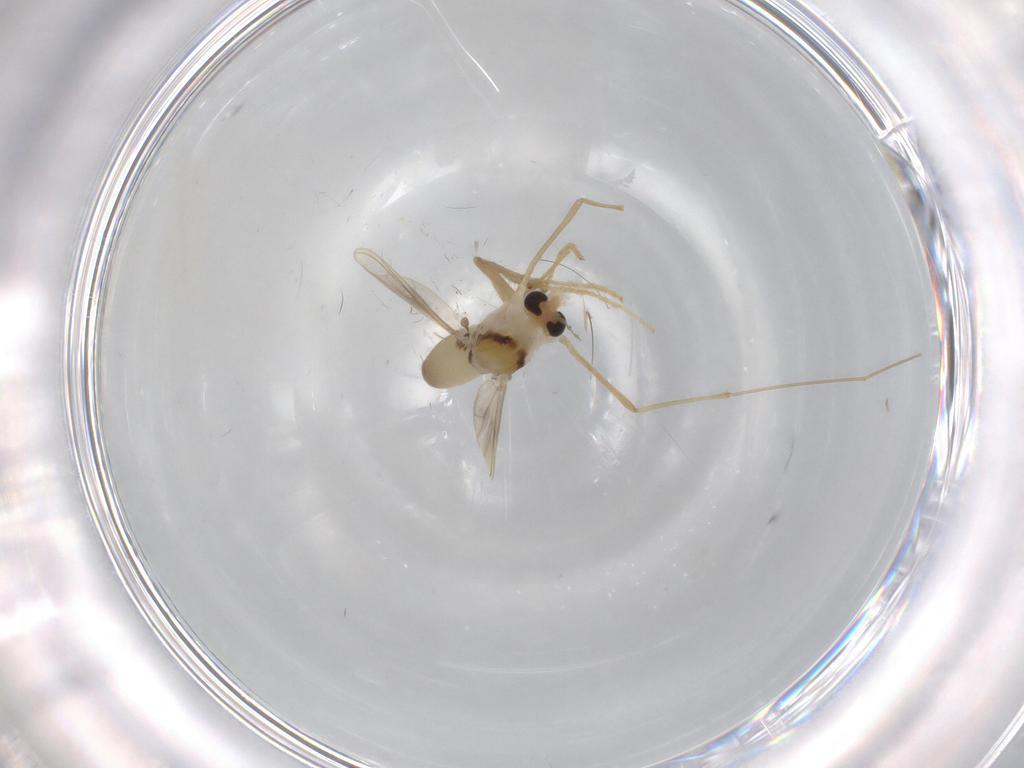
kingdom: Animalia
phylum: Arthropoda
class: Insecta
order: Diptera
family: Chironomidae
